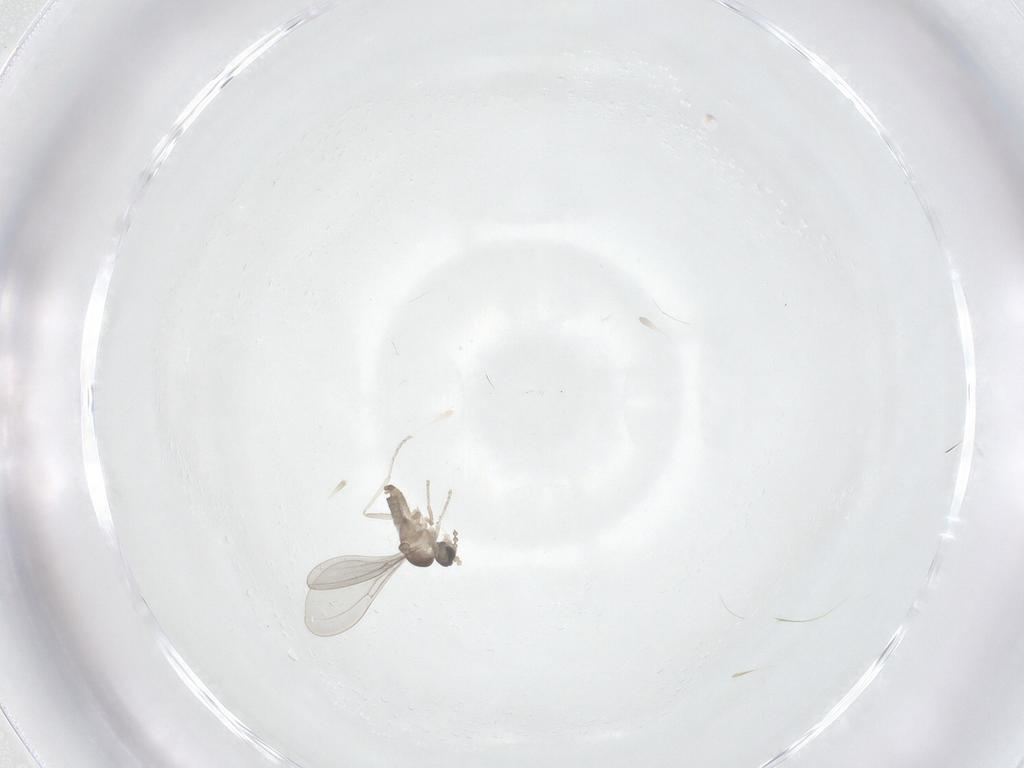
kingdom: Animalia
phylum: Arthropoda
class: Insecta
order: Diptera
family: Cecidomyiidae
